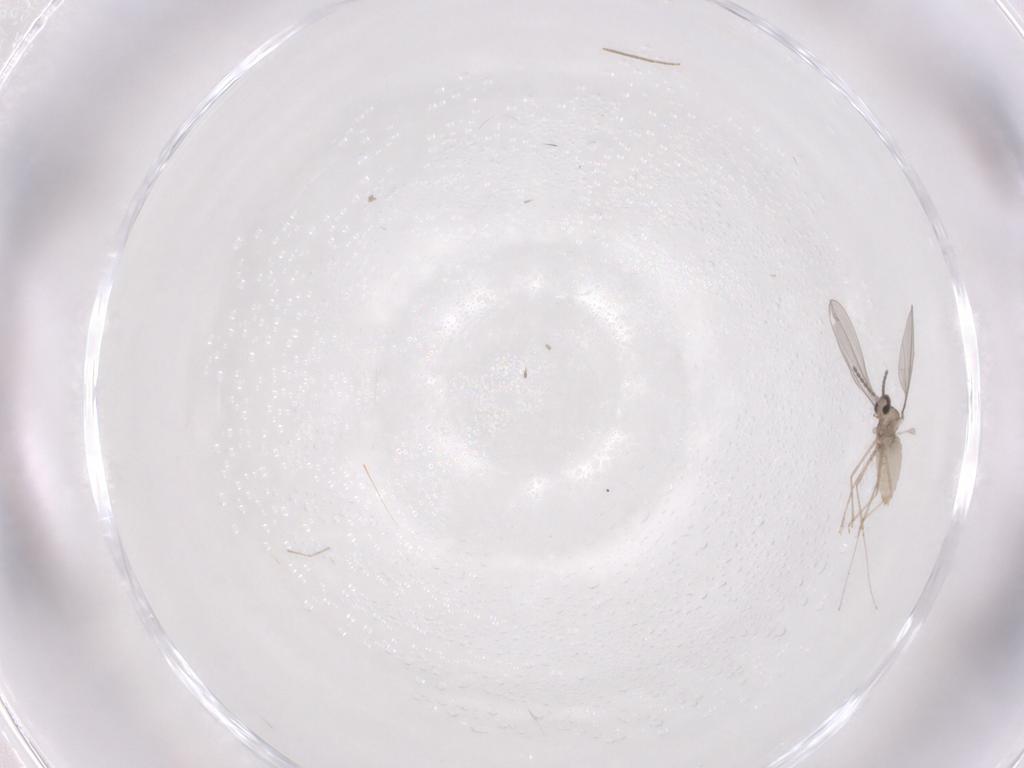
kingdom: Animalia
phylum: Arthropoda
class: Insecta
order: Diptera
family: Chironomidae
